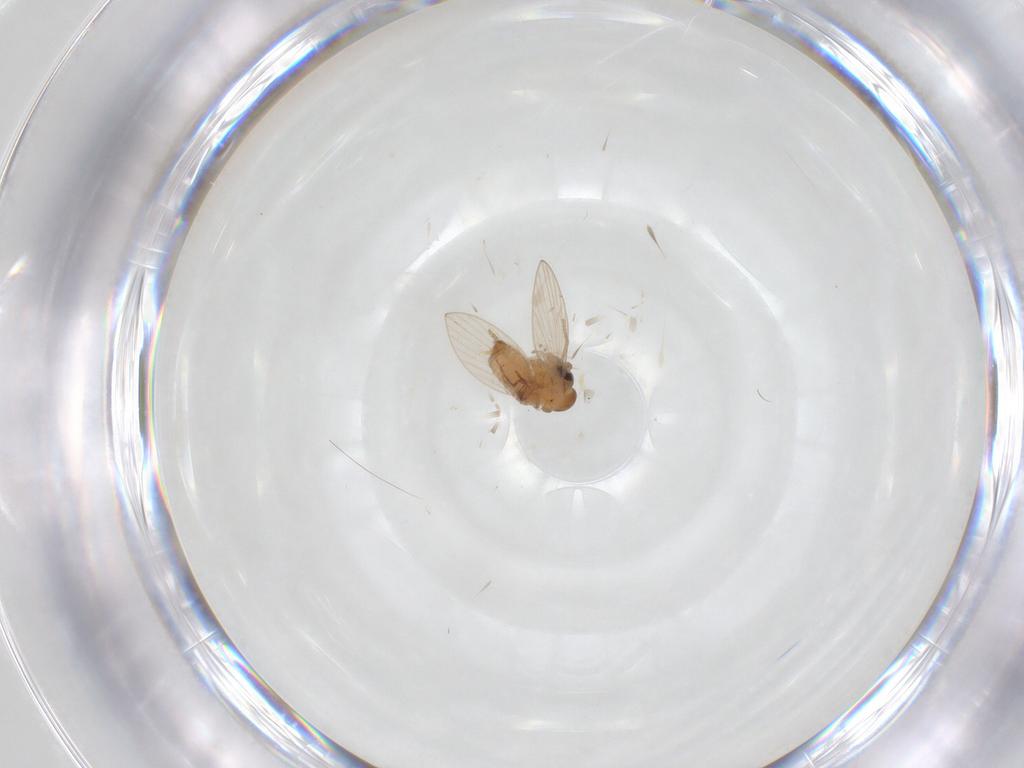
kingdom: Animalia
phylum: Arthropoda
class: Insecta
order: Diptera
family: Psychodidae
